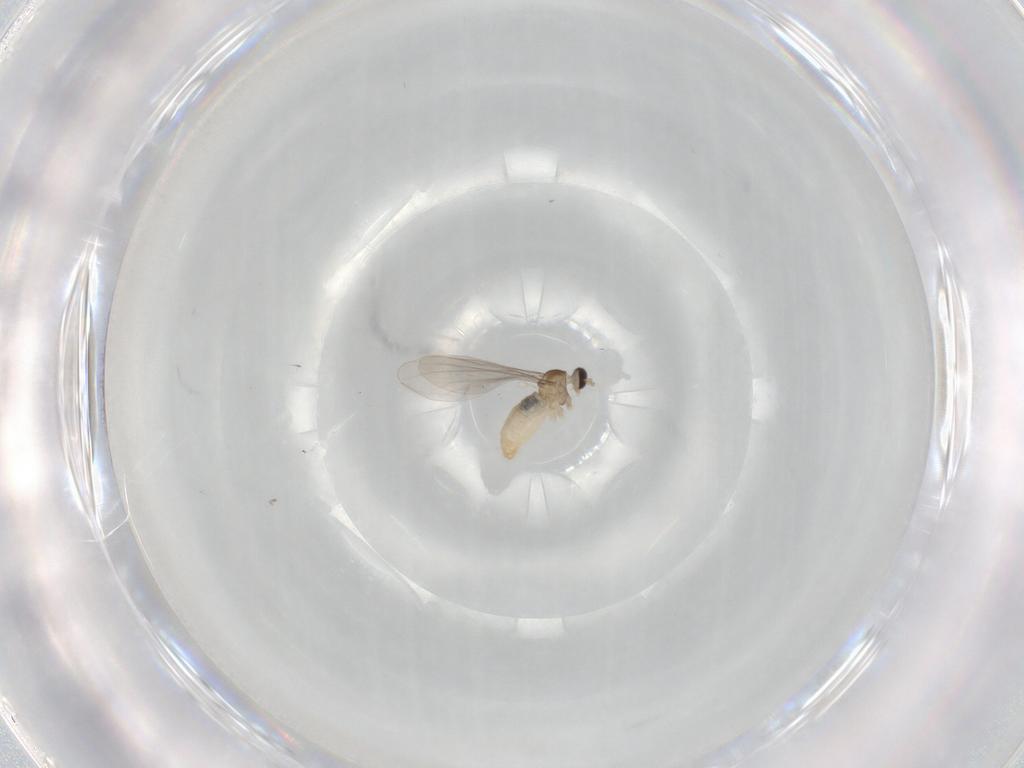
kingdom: Animalia
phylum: Arthropoda
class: Insecta
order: Diptera
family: Cecidomyiidae
